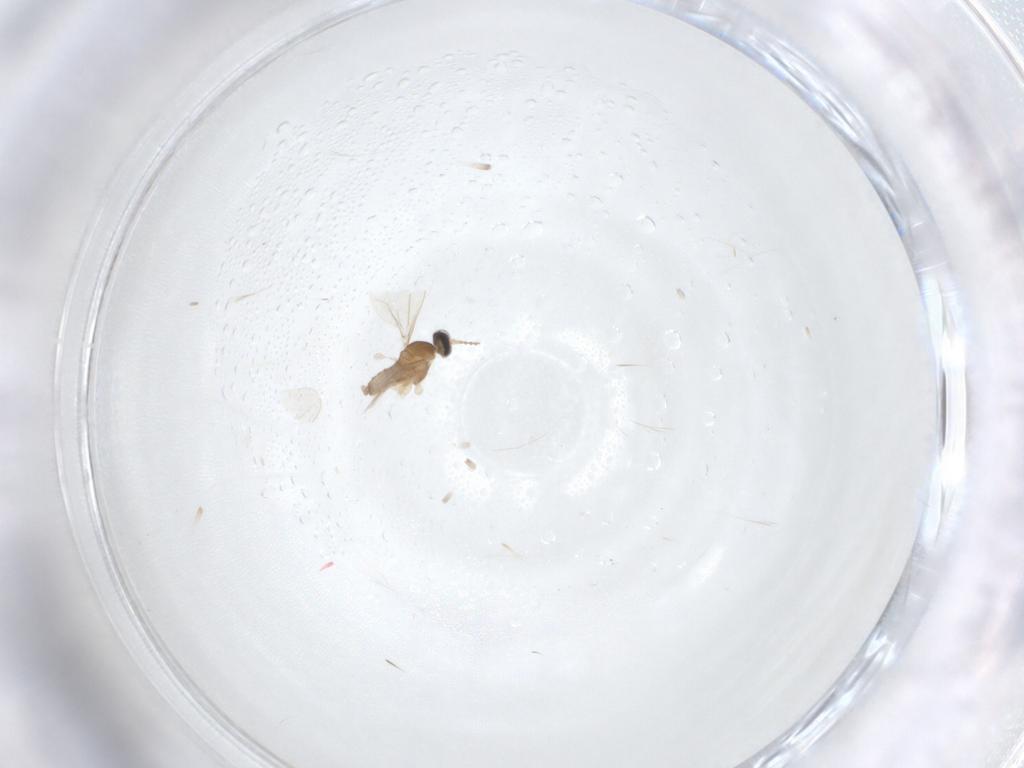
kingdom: Animalia
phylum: Arthropoda
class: Insecta
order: Diptera
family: Cecidomyiidae
